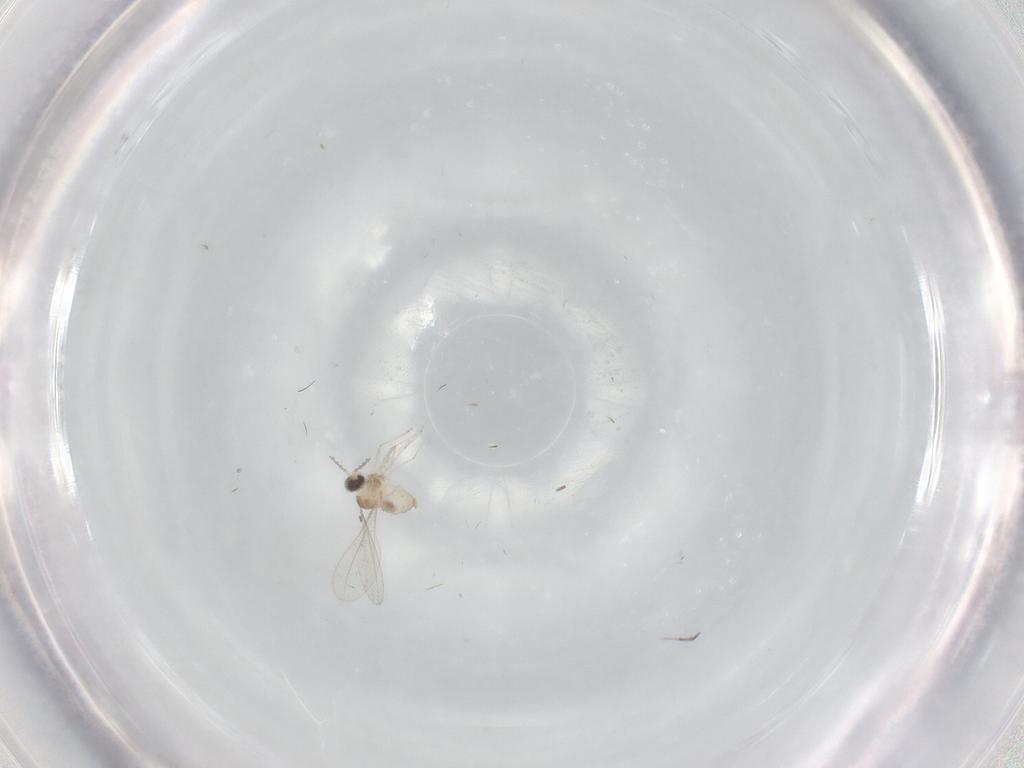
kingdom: Animalia
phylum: Arthropoda
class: Insecta
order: Diptera
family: Cecidomyiidae
